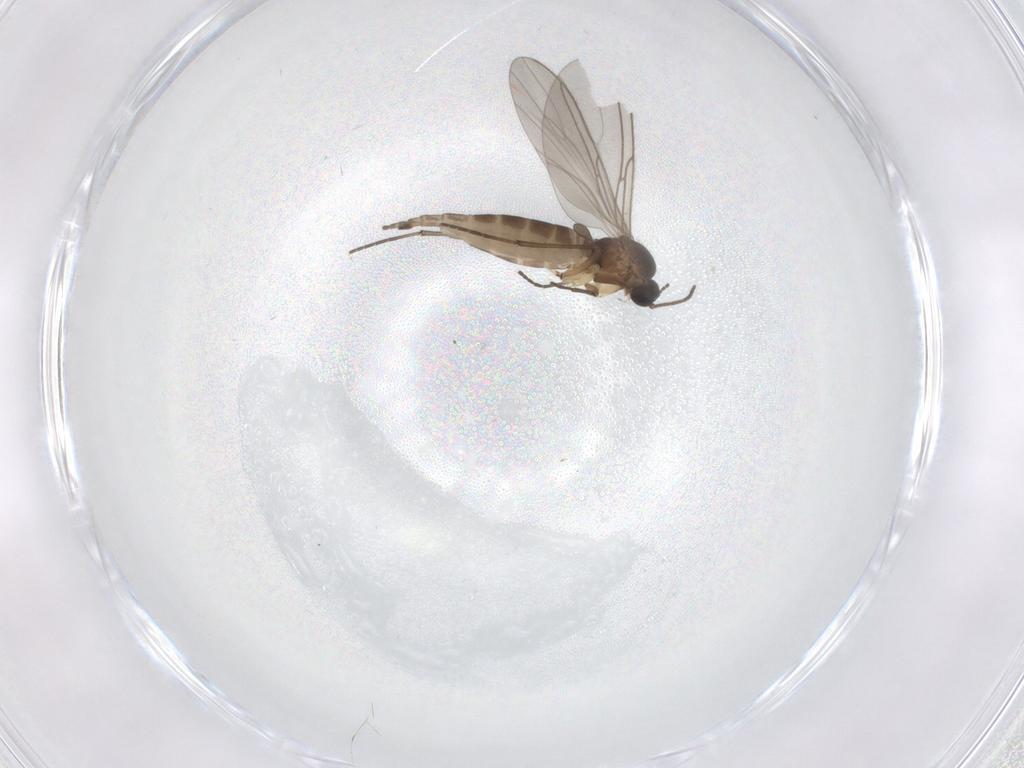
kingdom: Animalia
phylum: Arthropoda
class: Insecta
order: Diptera
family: Sciaridae
